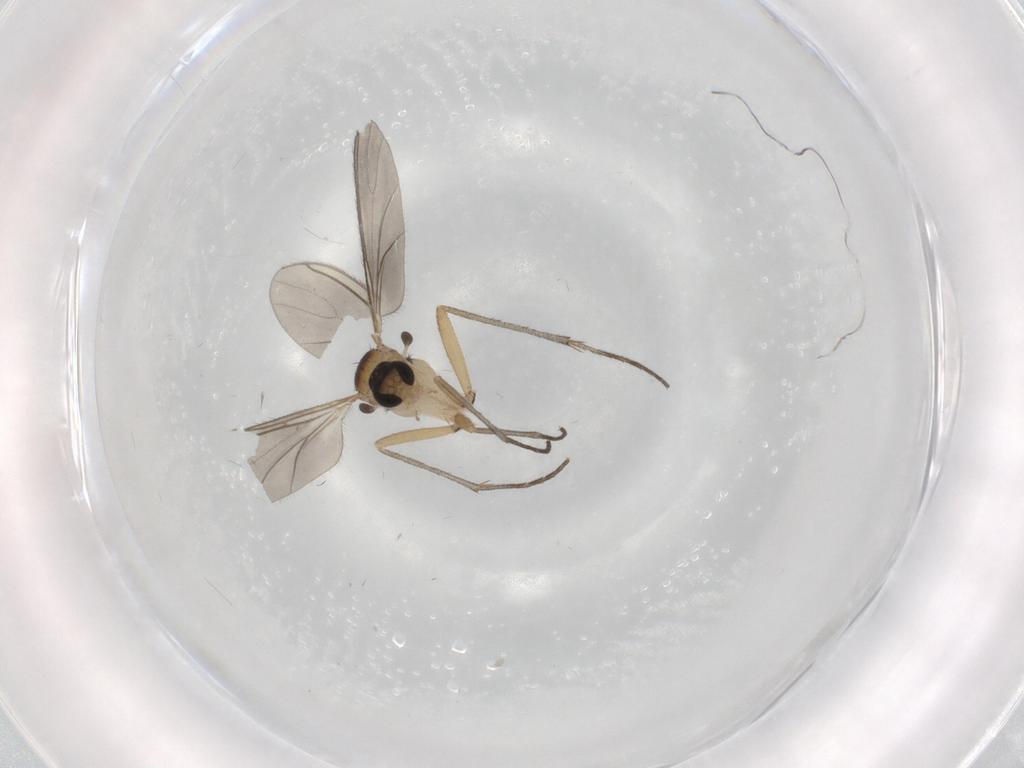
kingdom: Animalia
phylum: Arthropoda
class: Insecta
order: Diptera
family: Sciaridae
